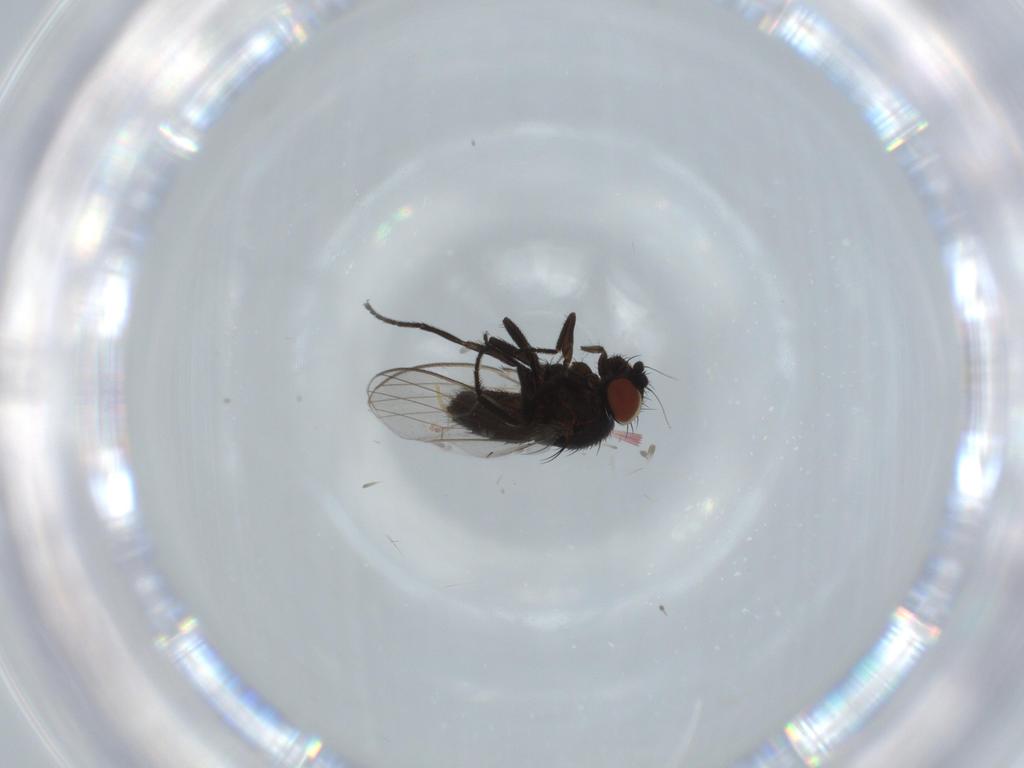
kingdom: Animalia
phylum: Arthropoda
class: Insecta
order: Diptera
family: Milichiidae
